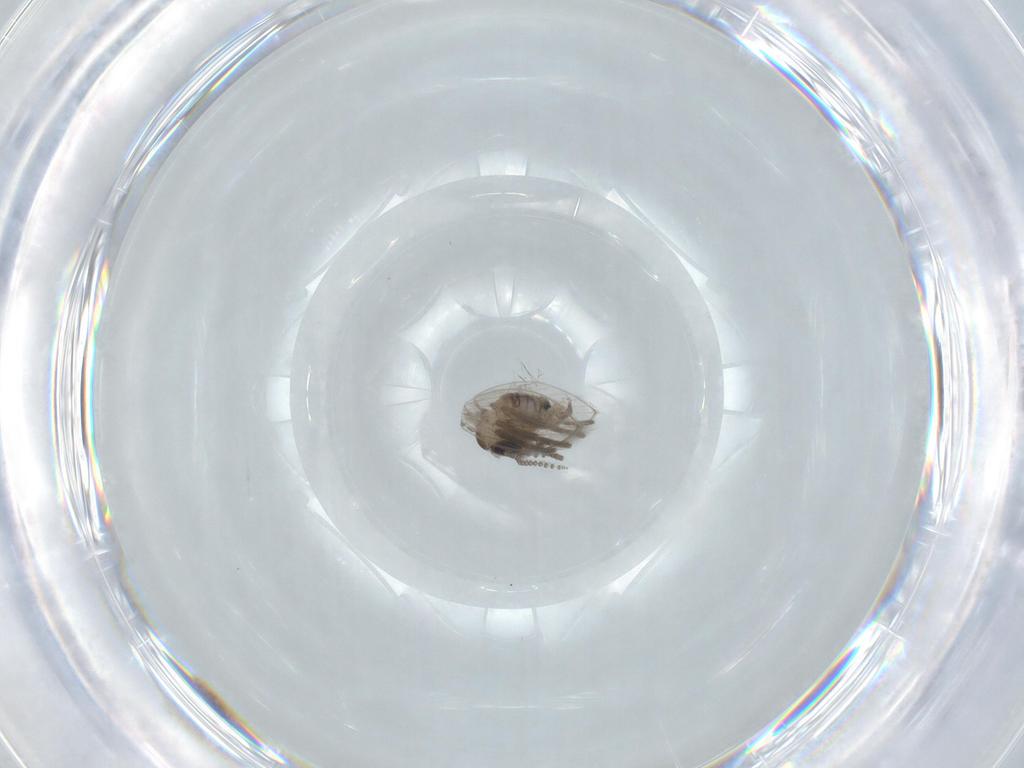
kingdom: Animalia
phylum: Arthropoda
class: Insecta
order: Diptera
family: Psychodidae
